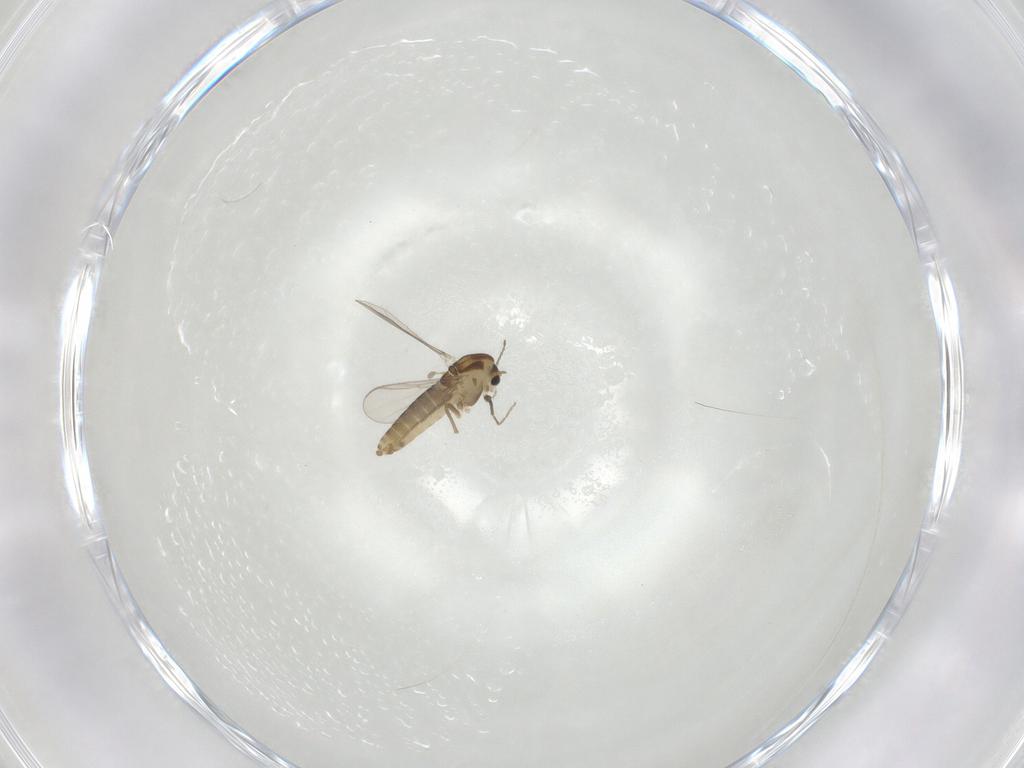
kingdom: Animalia
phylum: Arthropoda
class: Insecta
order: Diptera
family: Chironomidae
